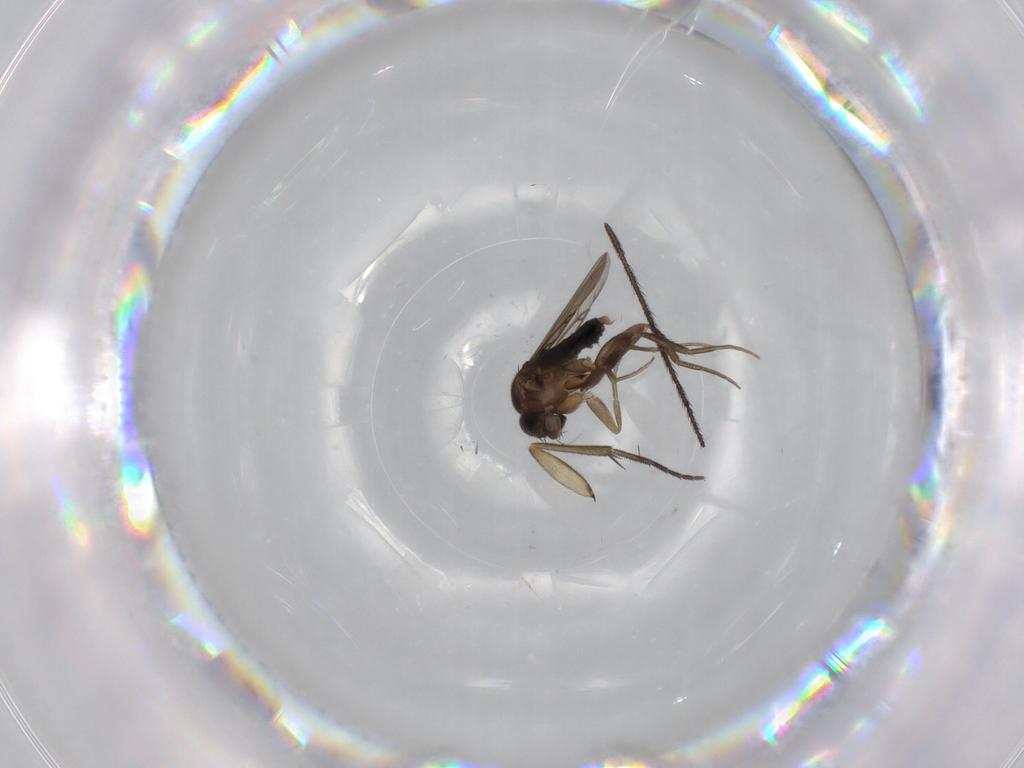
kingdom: Animalia
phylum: Arthropoda
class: Insecta
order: Diptera
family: Phoridae
